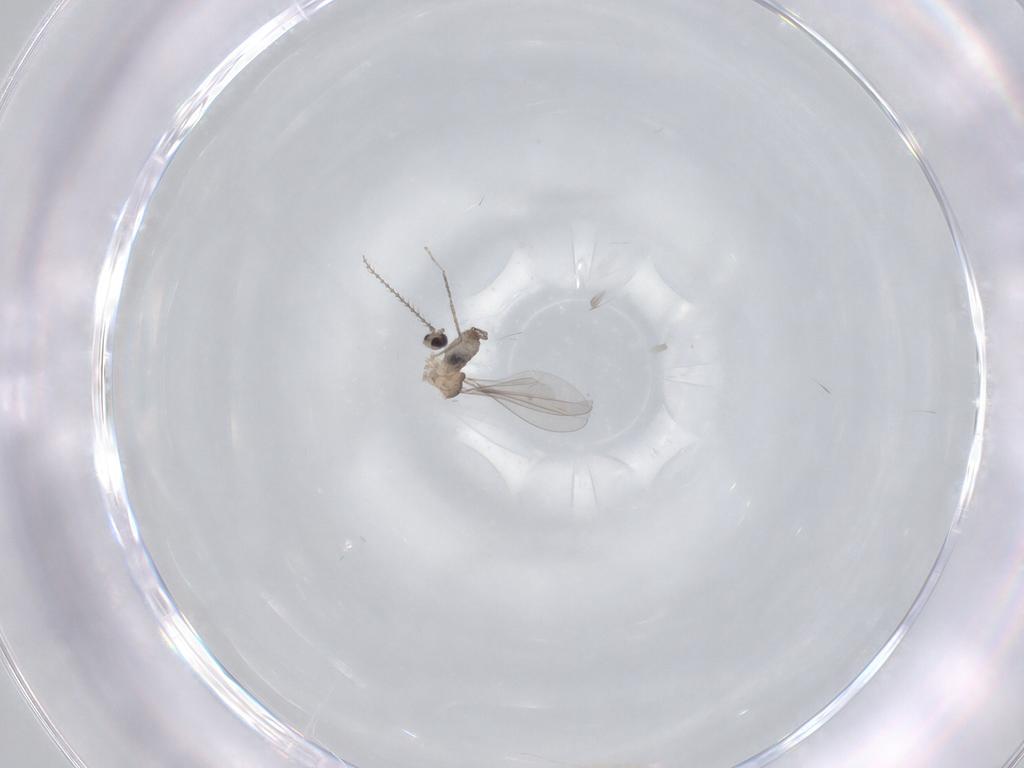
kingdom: Animalia
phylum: Arthropoda
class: Insecta
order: Diptera
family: Cecidomyiidae
